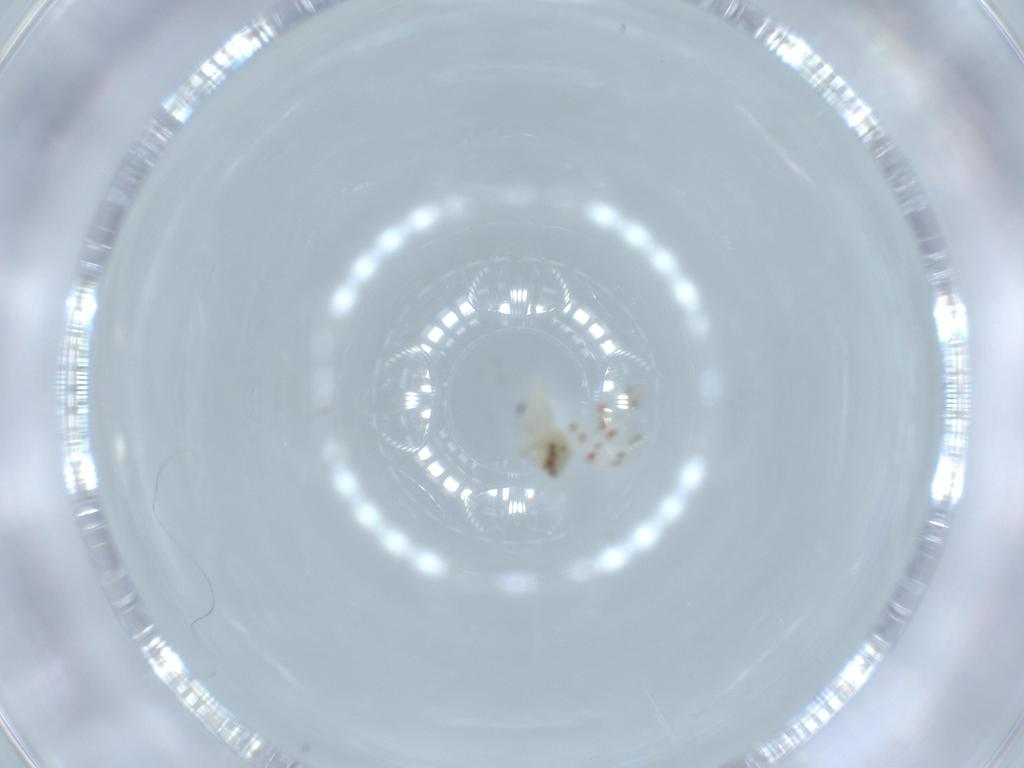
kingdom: Animalia
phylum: Arthropoda
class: Insecta
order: Hemiptera
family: Aleyrodidae
